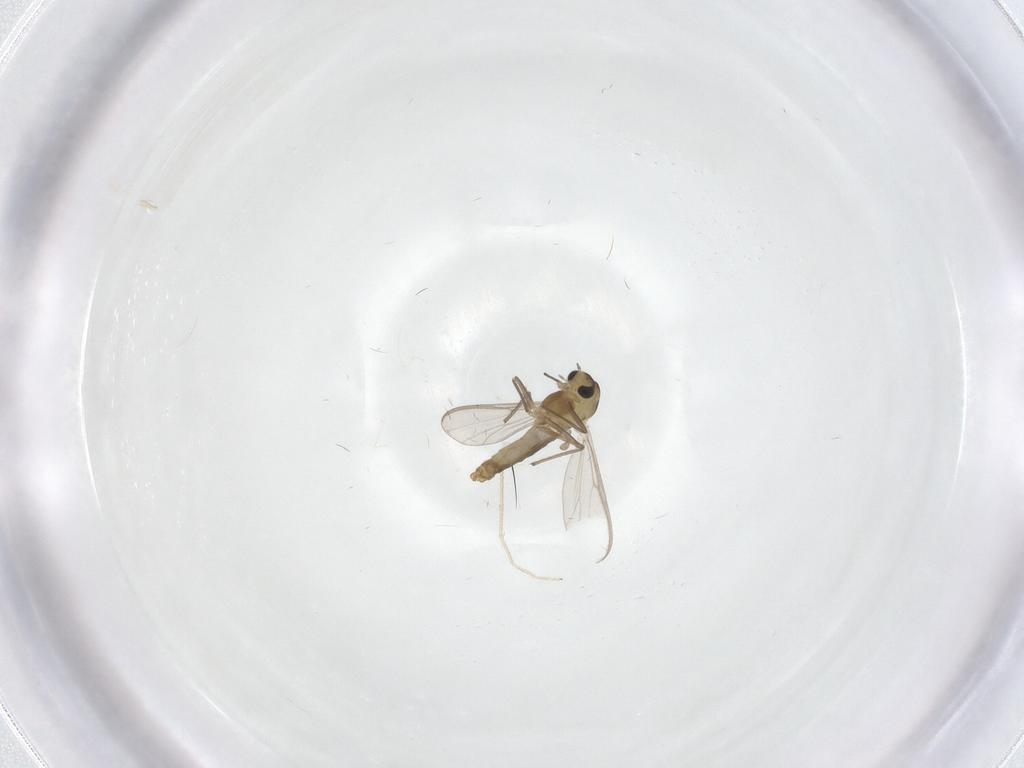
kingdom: Animalia
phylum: Arthropoda
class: Insecta
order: Diptera
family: Chironomidae
